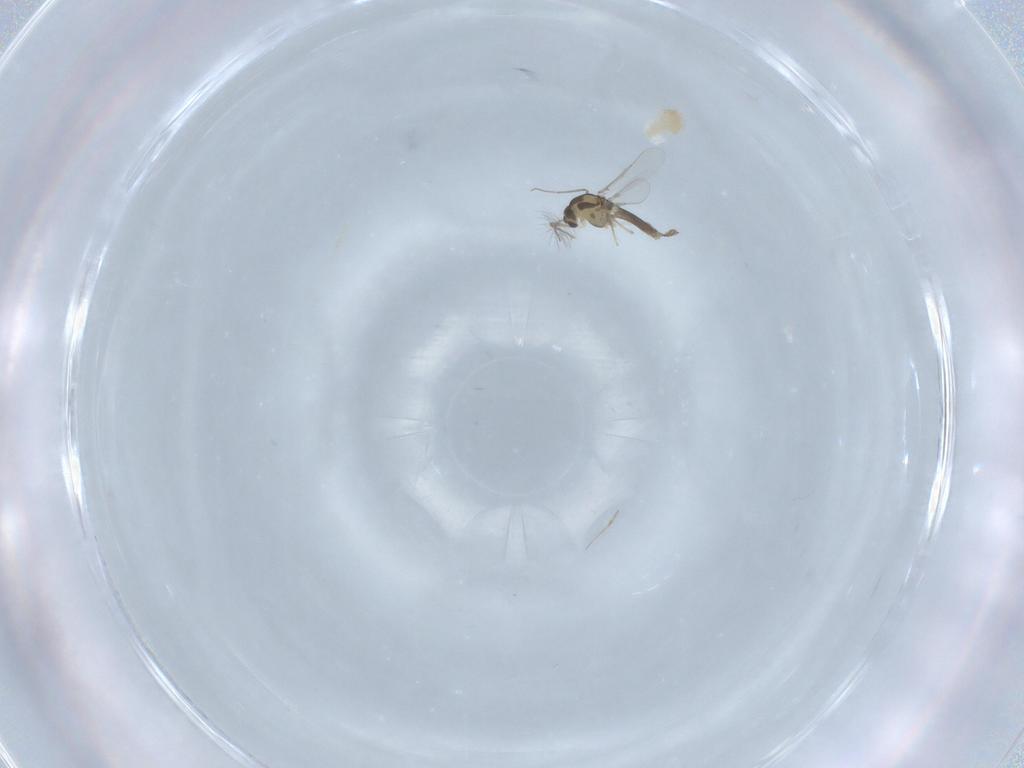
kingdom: Animalia
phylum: Arthropoda
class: Insecta
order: Diptera
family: Chironomidae
